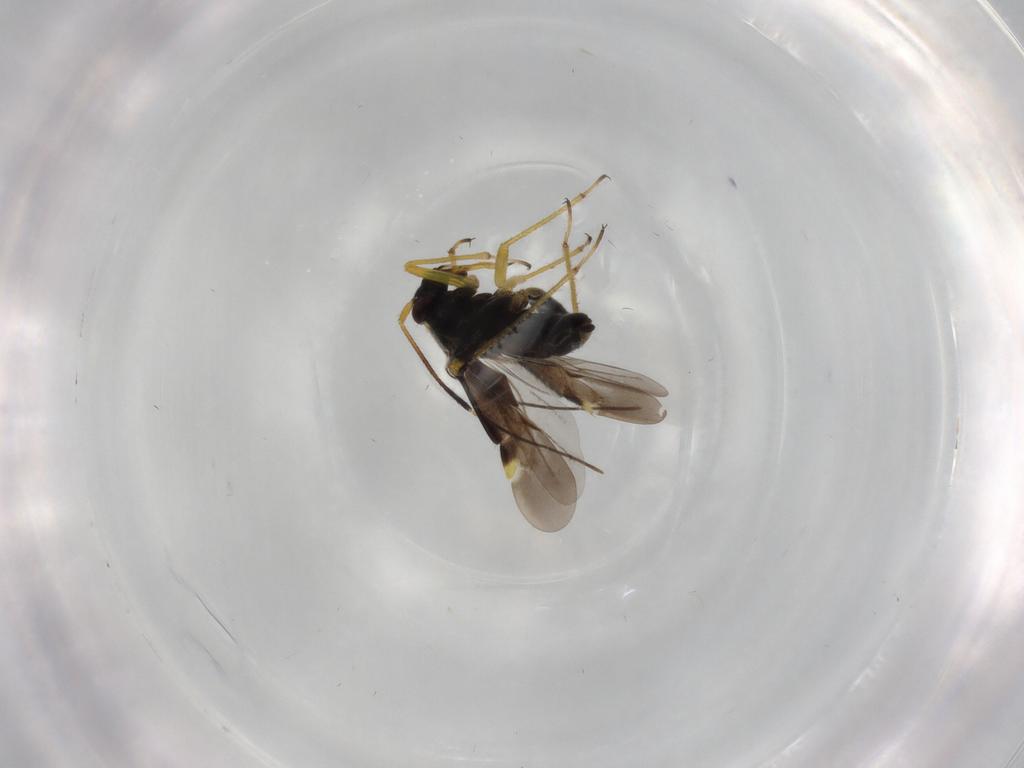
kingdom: Animalia
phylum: Arthropoda
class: Insecta
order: Hemiptera
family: Miridae
